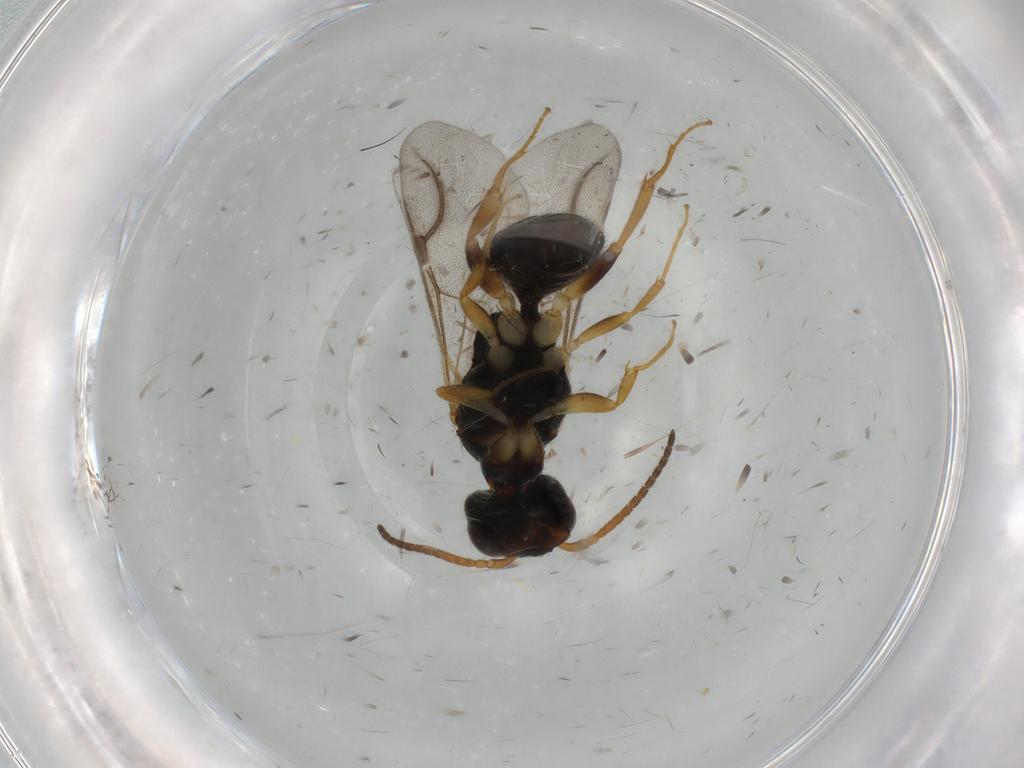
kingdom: Animalia
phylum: Arthropoda
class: Insecta
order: Hymenoptera
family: Bethylidae
